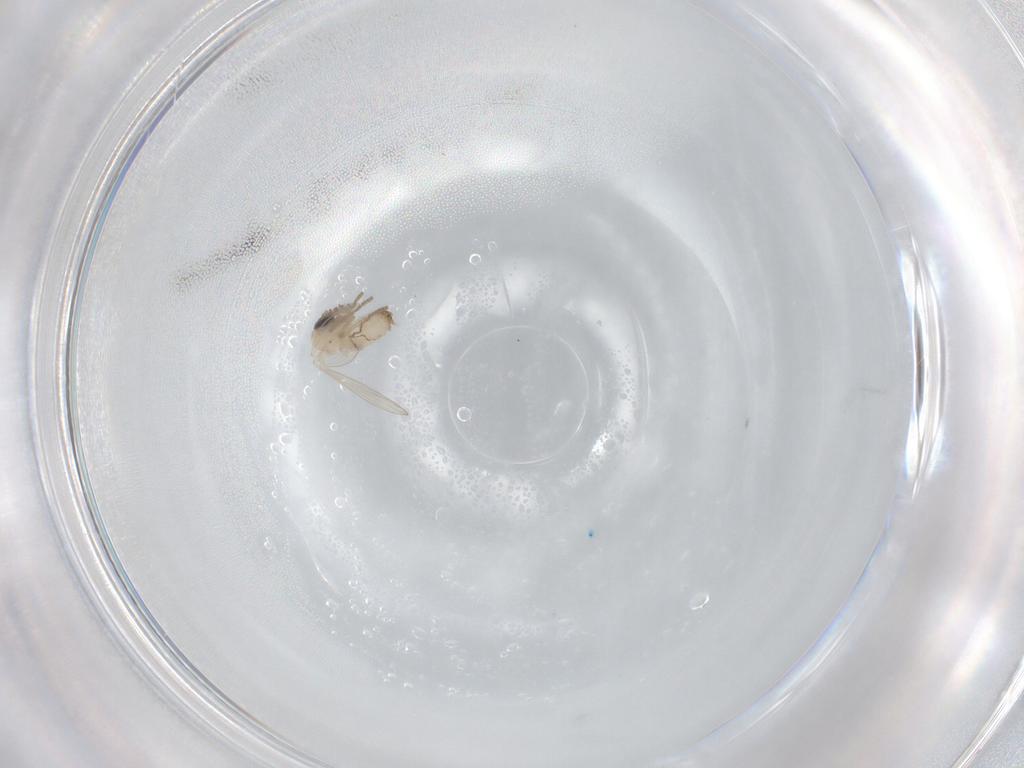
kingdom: Animalia
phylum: Arthropoda
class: Insecta
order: Diptera
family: Psychodidae
